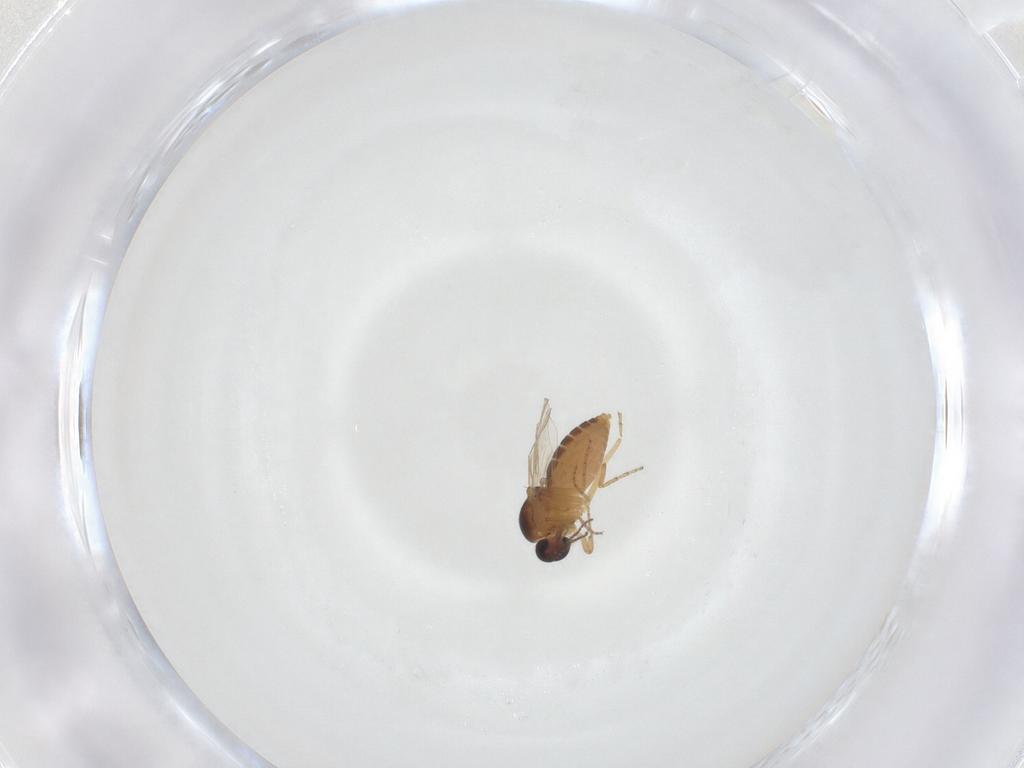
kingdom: Animalia
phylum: Arthropoda
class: Insecta
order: Diptera
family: Ceratopogonidae
